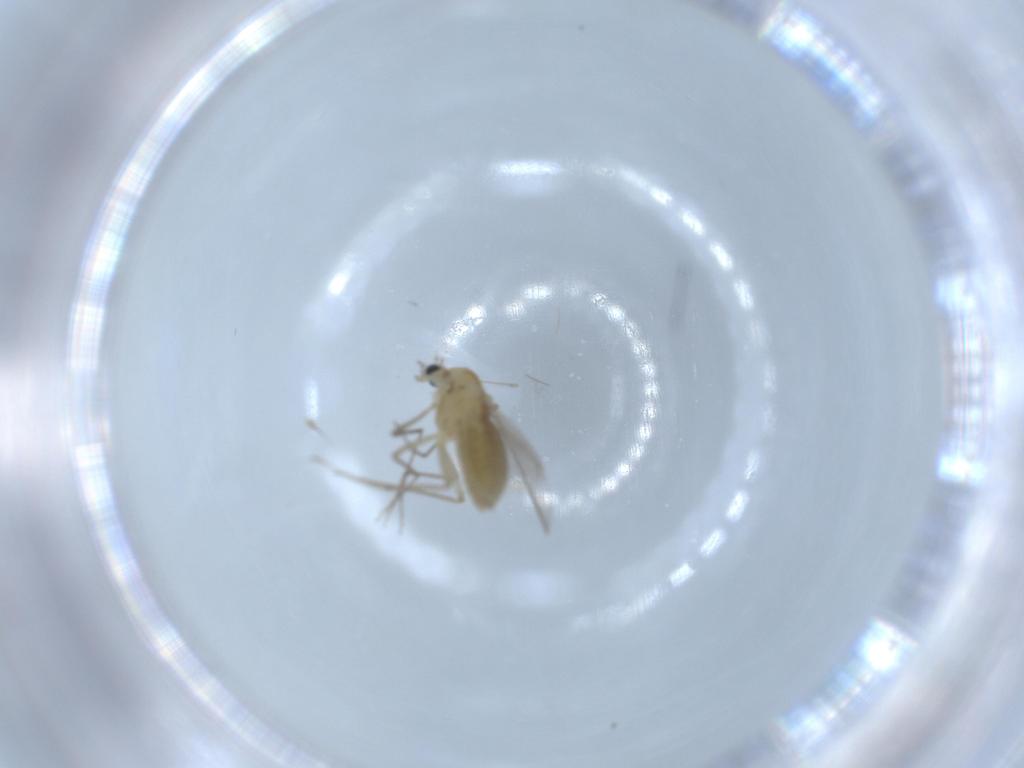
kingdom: Animalia
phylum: Arthropoda
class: Insecta
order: Diptera
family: Chironomidae
